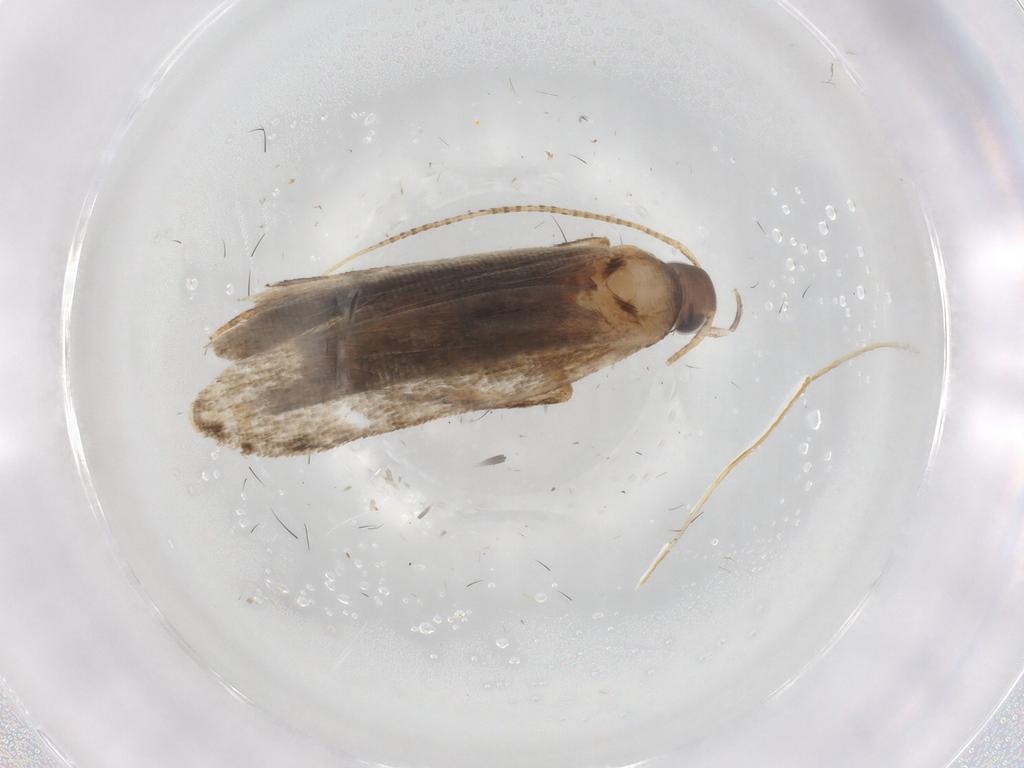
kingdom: Animalia
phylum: Arthropoda
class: Insecta
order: Lepidoptera
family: Gelechiidae
